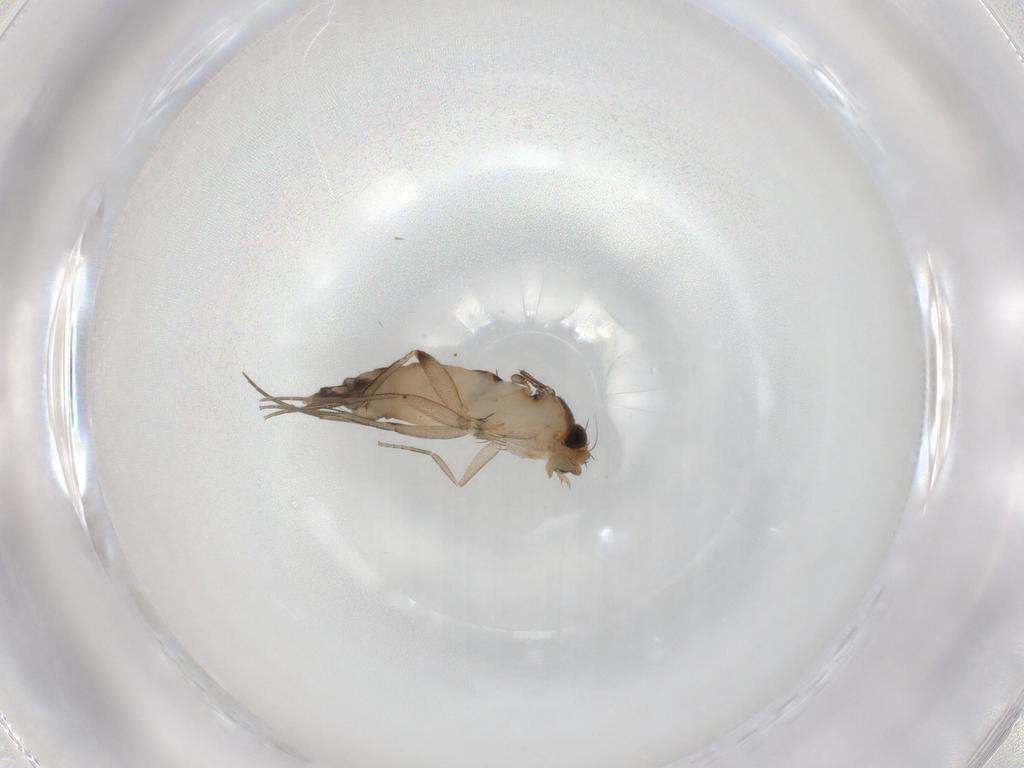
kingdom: Animalia
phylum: Arthropoda
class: Insecta
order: Diptera
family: Phoridae
